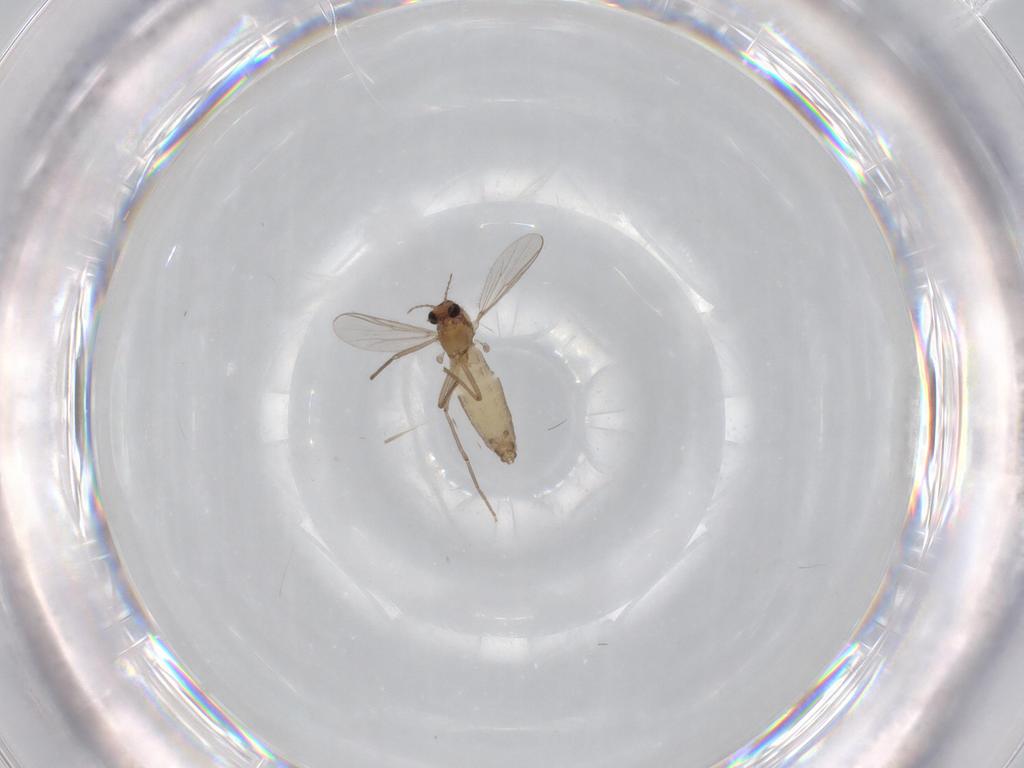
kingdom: Animalia
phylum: Arthropoda
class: Insecta
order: Diptera
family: Chironomidae
